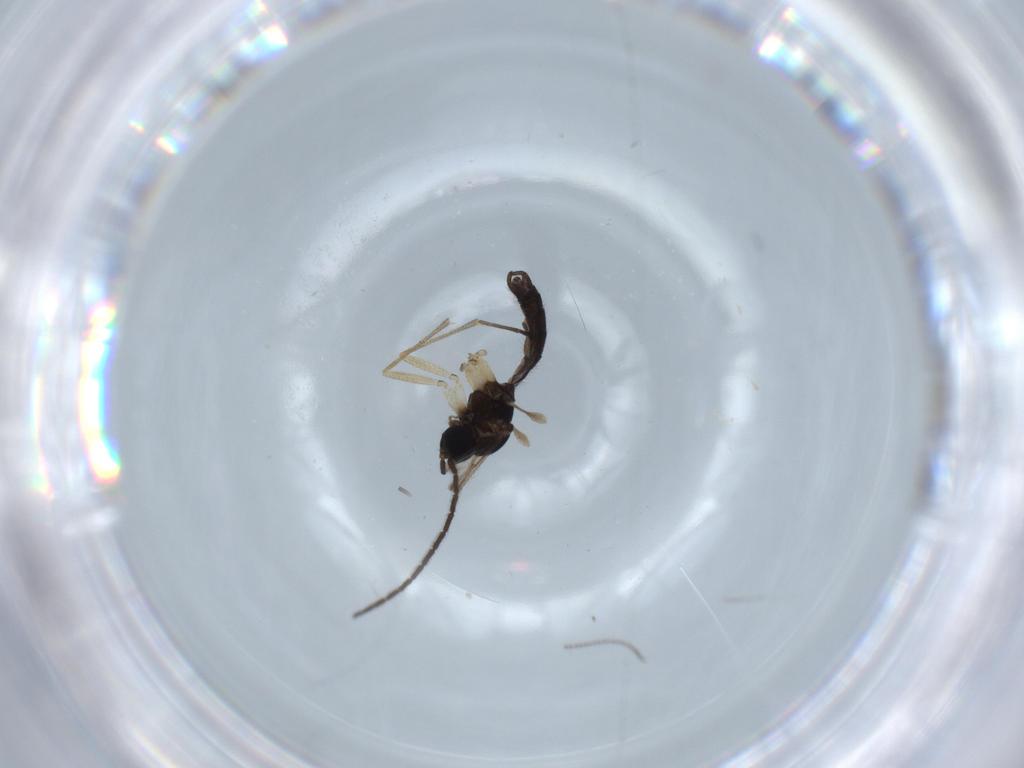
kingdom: Animalia
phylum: Arthropoda
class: Insecta
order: Diptera
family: Sciaridae
